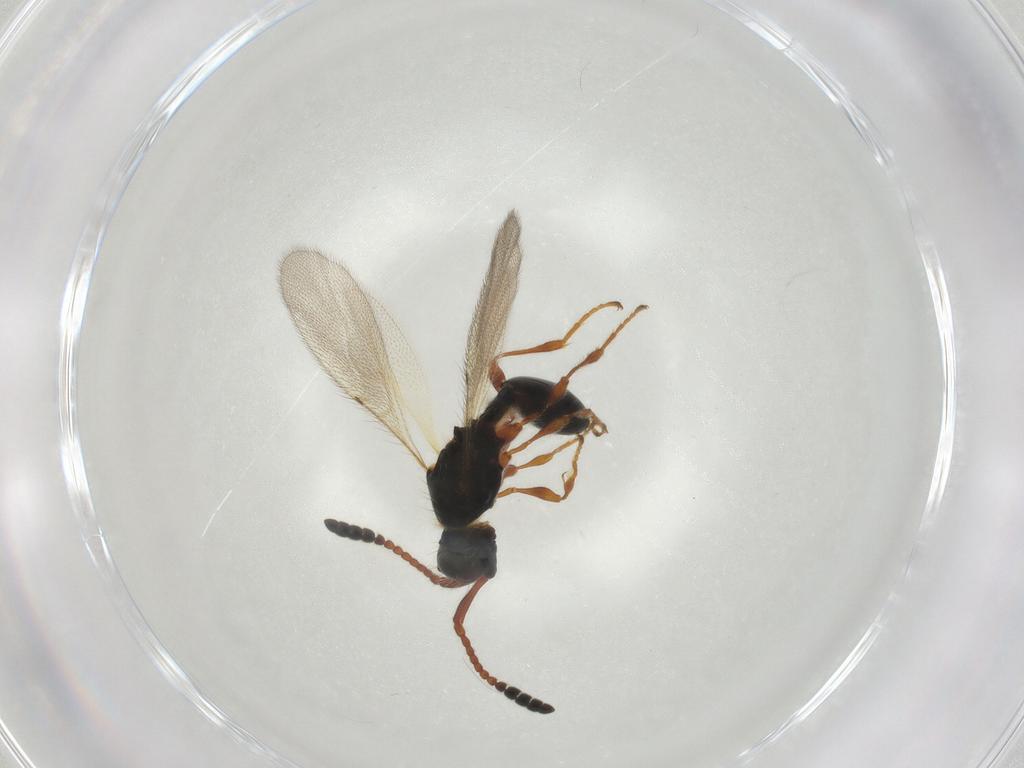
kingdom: Animalia
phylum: Arthropoda
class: Insecta
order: Hymenoptera
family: Diapriidae
